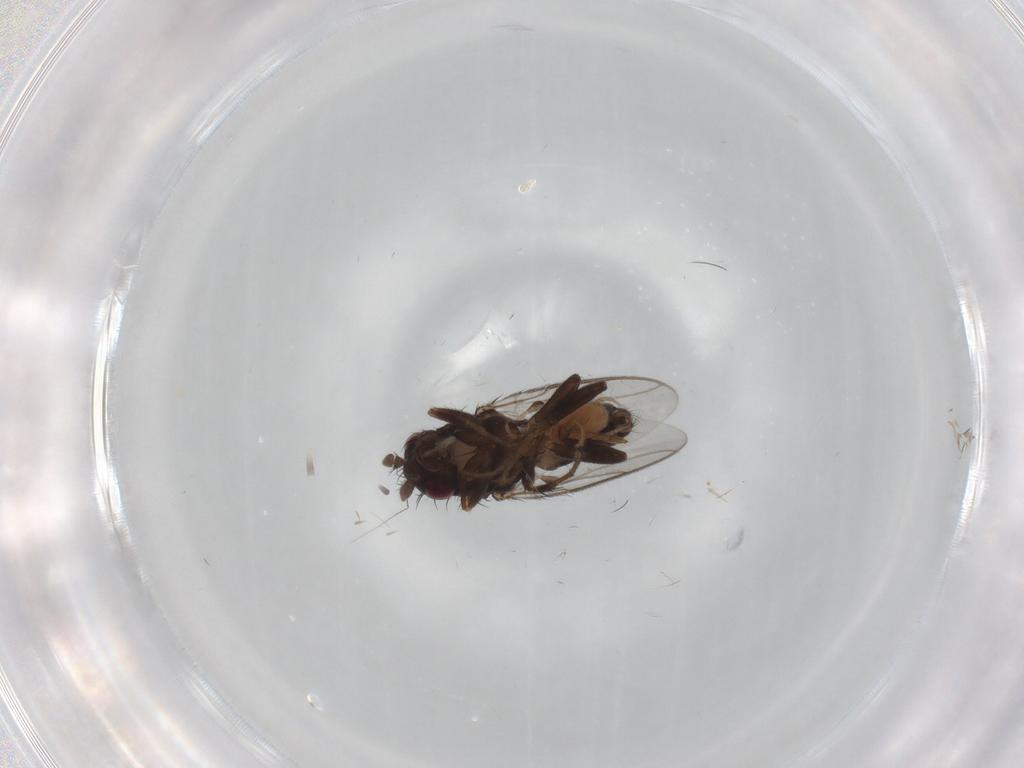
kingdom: Animalia
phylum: Arthropoda
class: Insecta
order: Diptera
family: Sphaeroceridae
